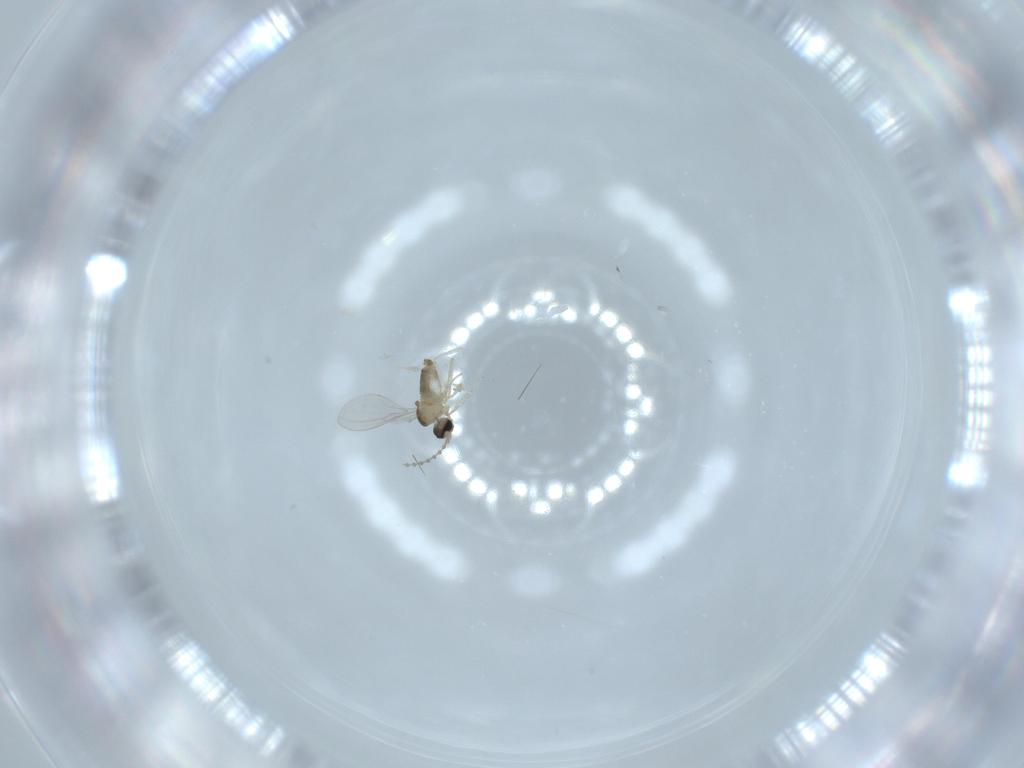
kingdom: Animalia
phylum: Arthropoda
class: Insecta
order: Diptera
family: Cecidomyiidae
